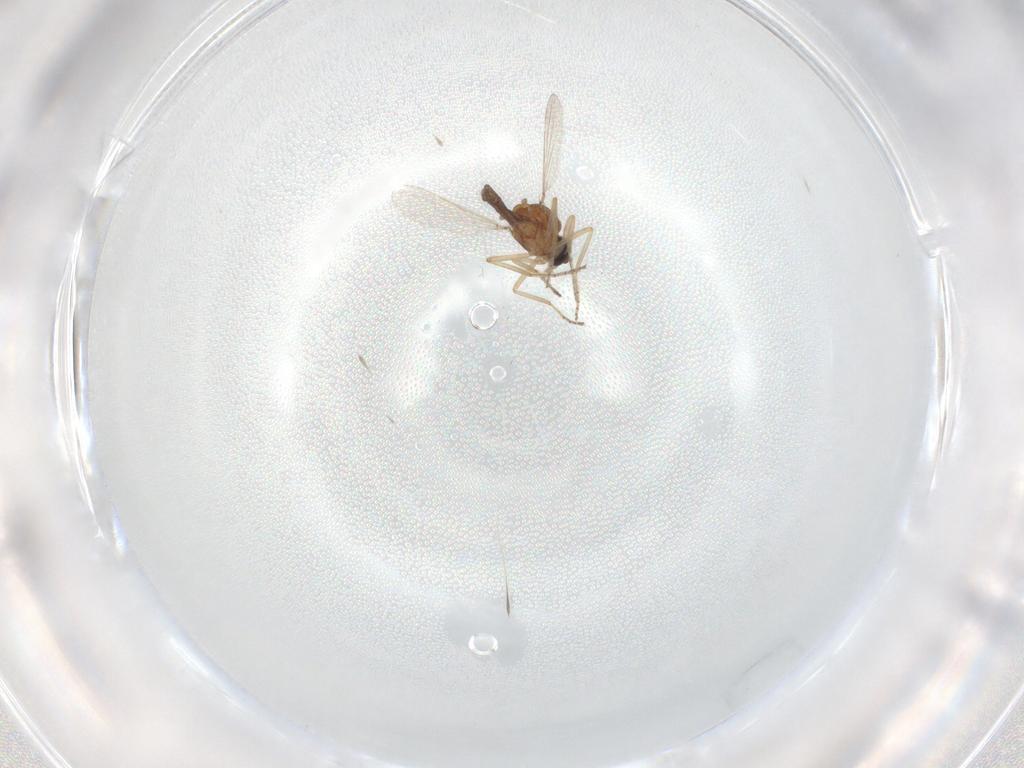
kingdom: Animalia
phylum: Arthropoda
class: Insecta
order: Diptera
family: Ceratopogonidae
